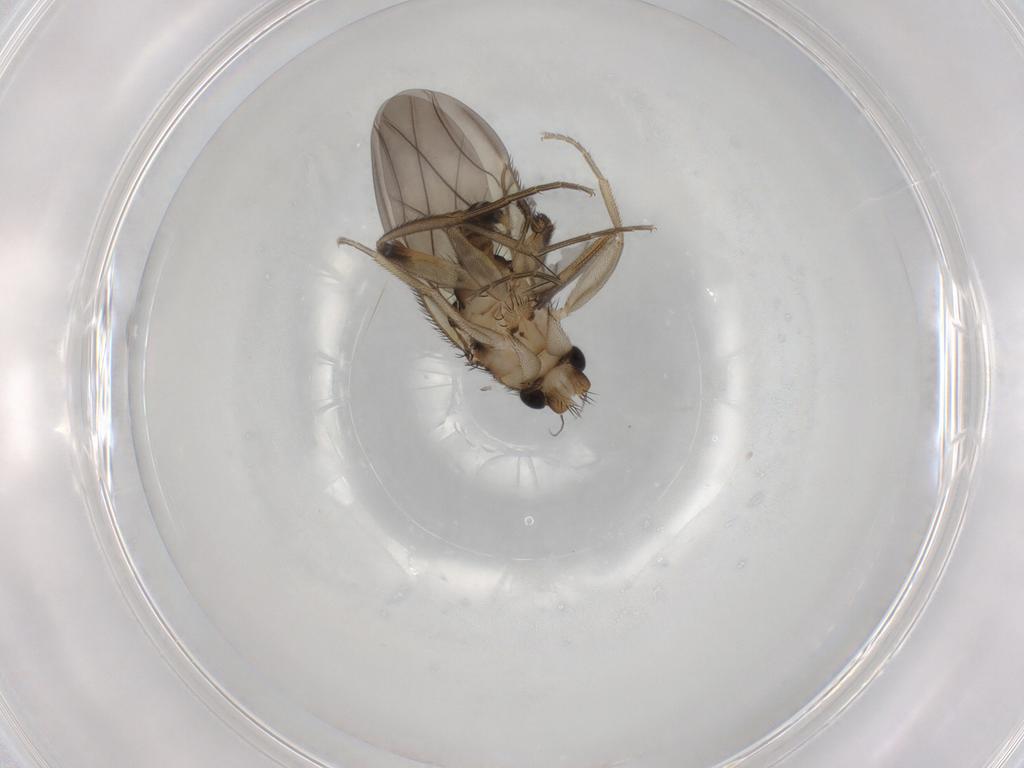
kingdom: Animalia
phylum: Arthropoda
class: Insecta
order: Diptera
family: Phoridae
